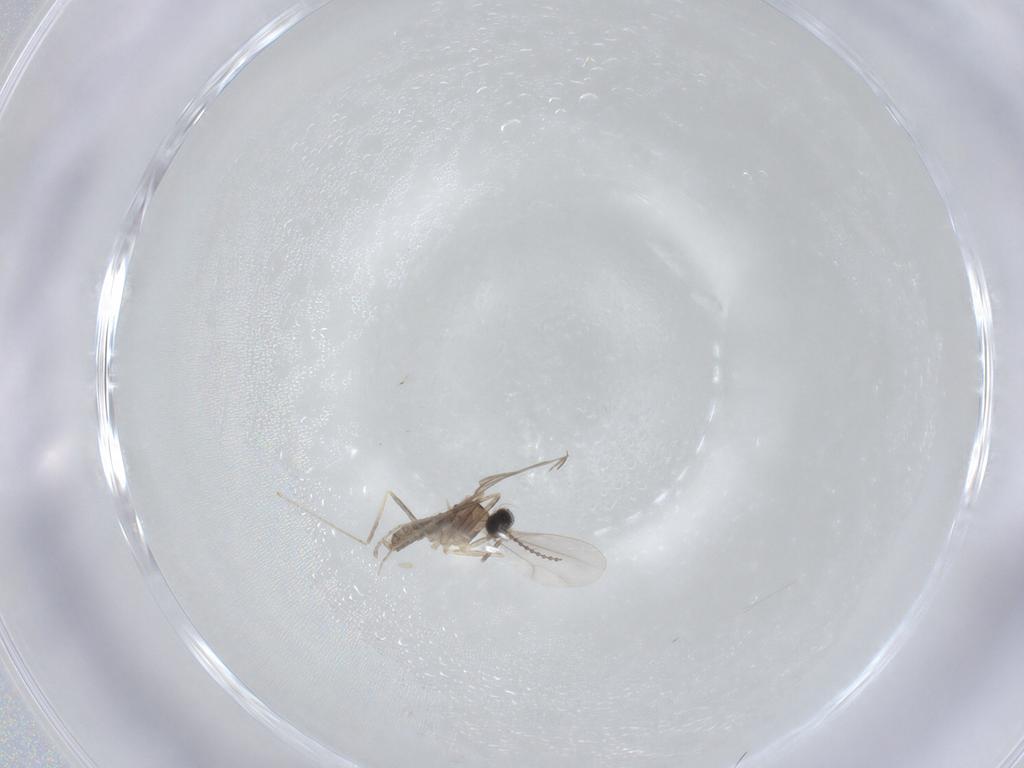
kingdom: Animalia
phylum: Arthropoda
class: Insecta
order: Diptera
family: Cecidomyiidae
